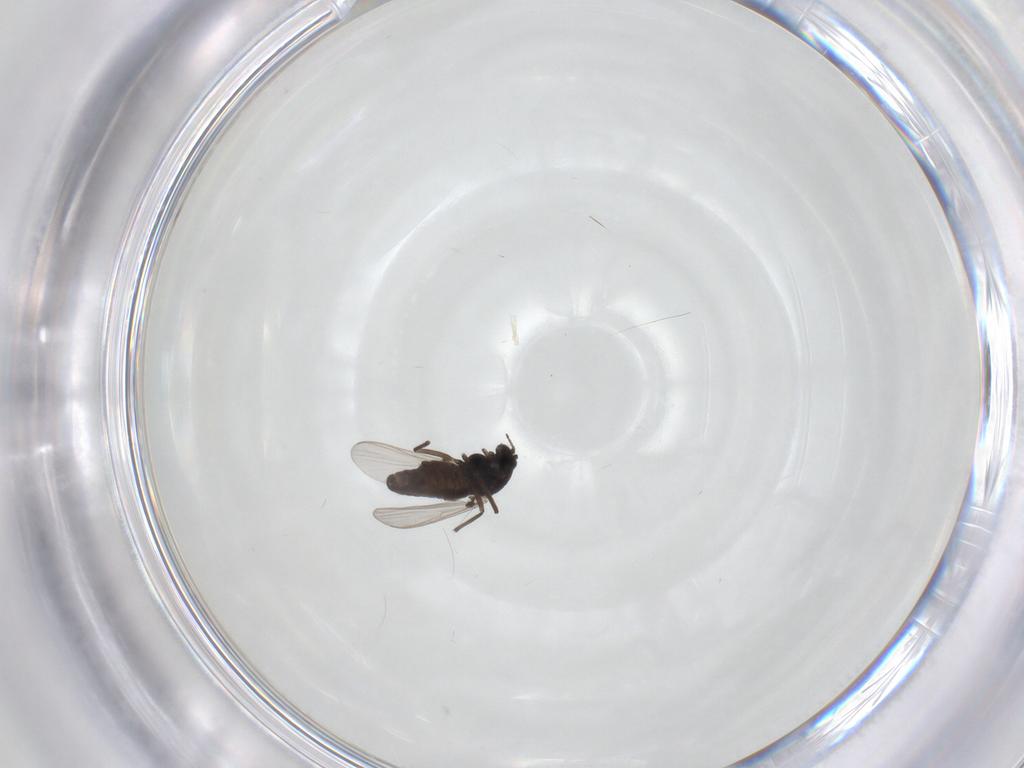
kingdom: Animalia
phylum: Arthropoda
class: Insecta
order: Diptera
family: Chironomidae
